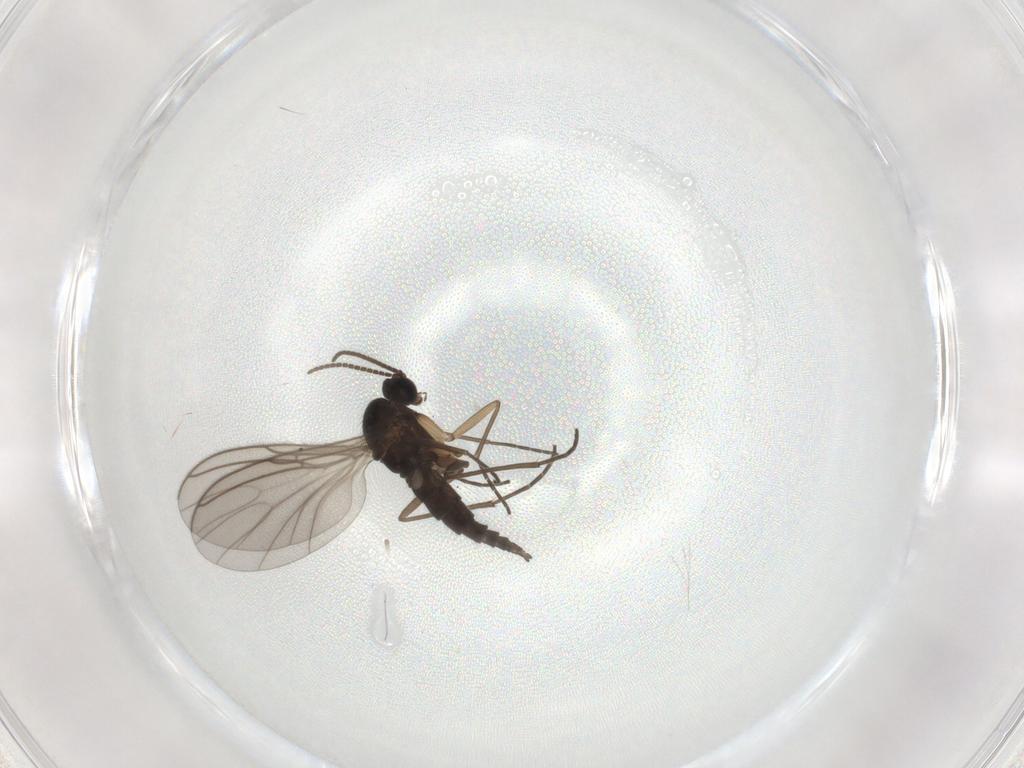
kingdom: Animalia
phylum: Arthropoda
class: Insecta
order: Diptera
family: Sciaridae
